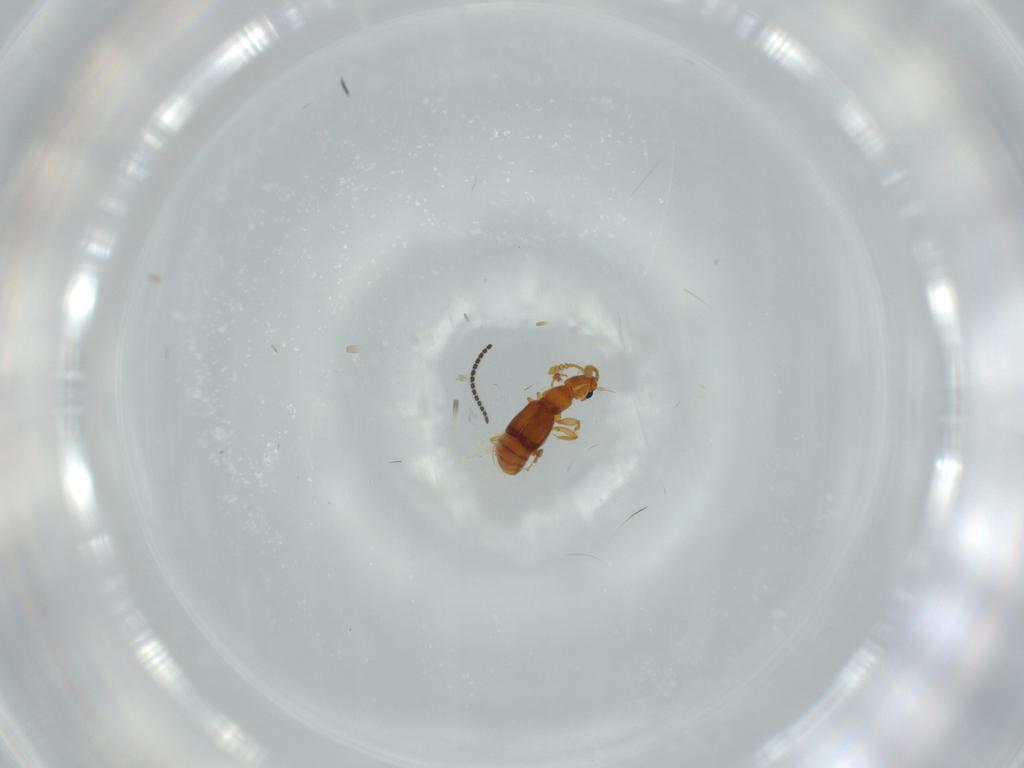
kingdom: Animalia
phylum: Arthropoda
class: Insecta
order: Coleoptera
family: Staphylinidae
